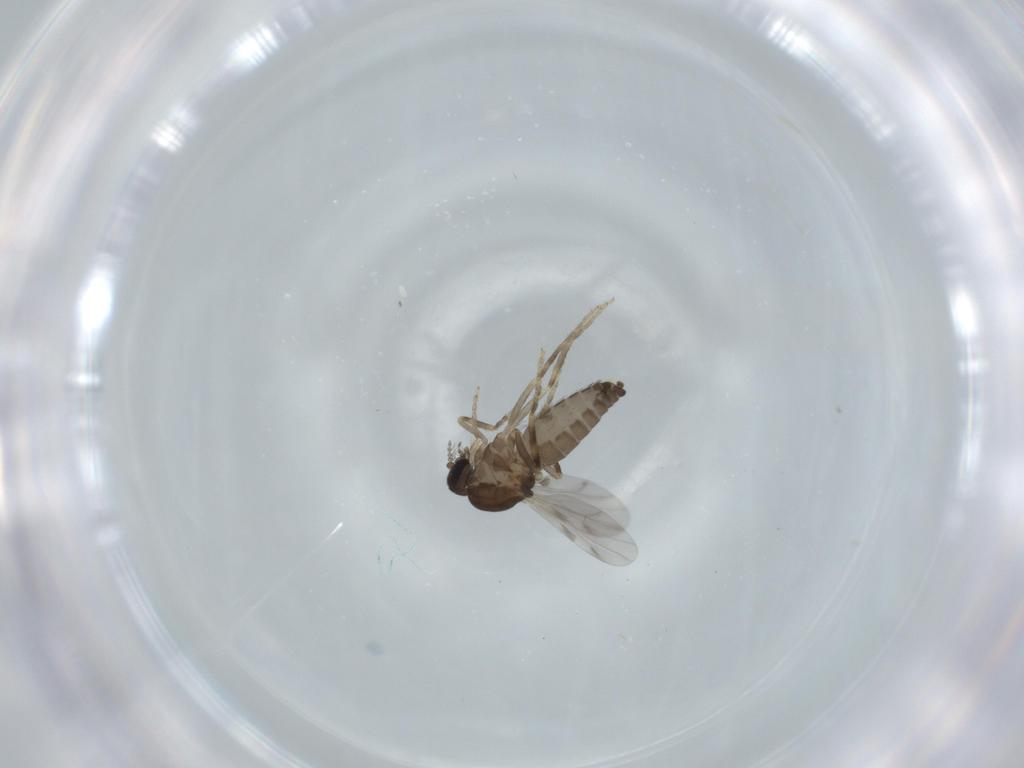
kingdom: Animalia
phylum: Arthropoda
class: Insecta
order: Diptera
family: Ceratopogonidae
